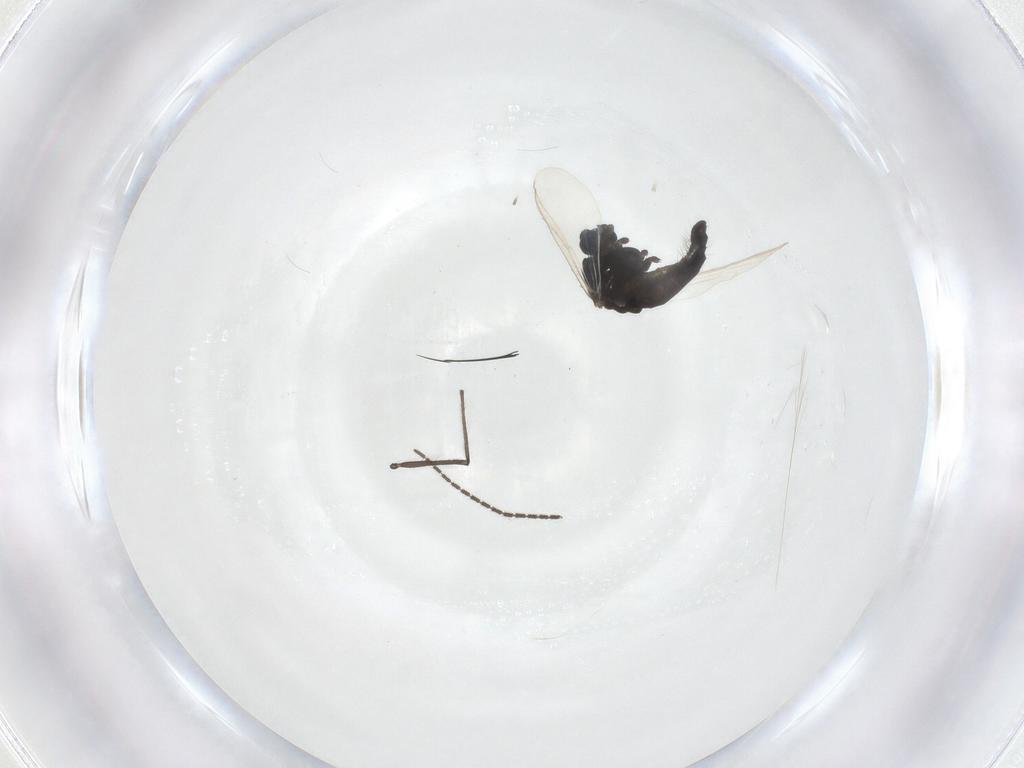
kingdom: Animalia
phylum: Arthropoda
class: Insecta
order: Diptera
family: Chironomidae
